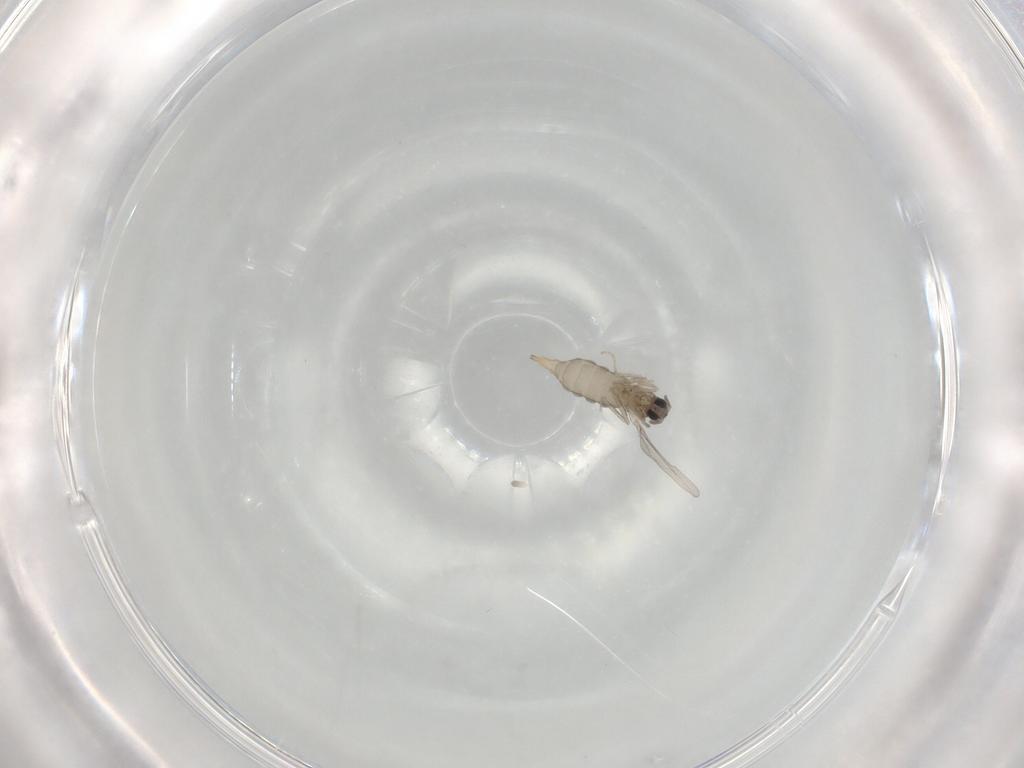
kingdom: Animalia
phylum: Arthropoda
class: Insecta
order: Diptera
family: Cecidomyiidae
